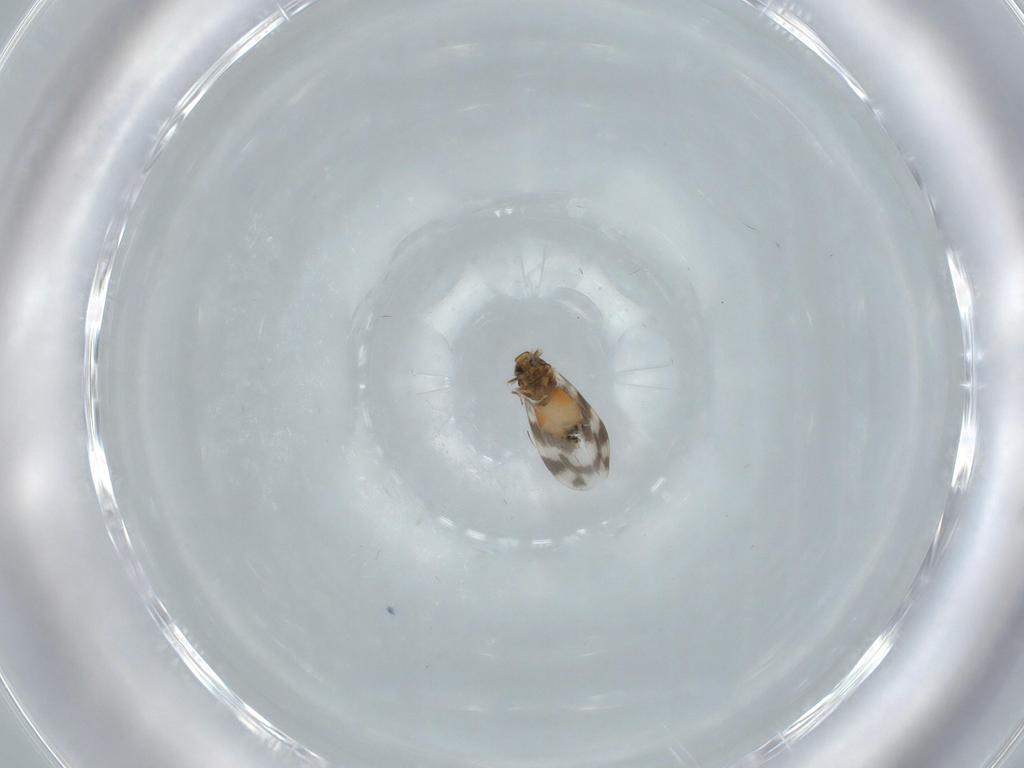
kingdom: Animalia
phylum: Arthropoda
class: Insecta
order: Hemiptera
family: Aleyrodidae
